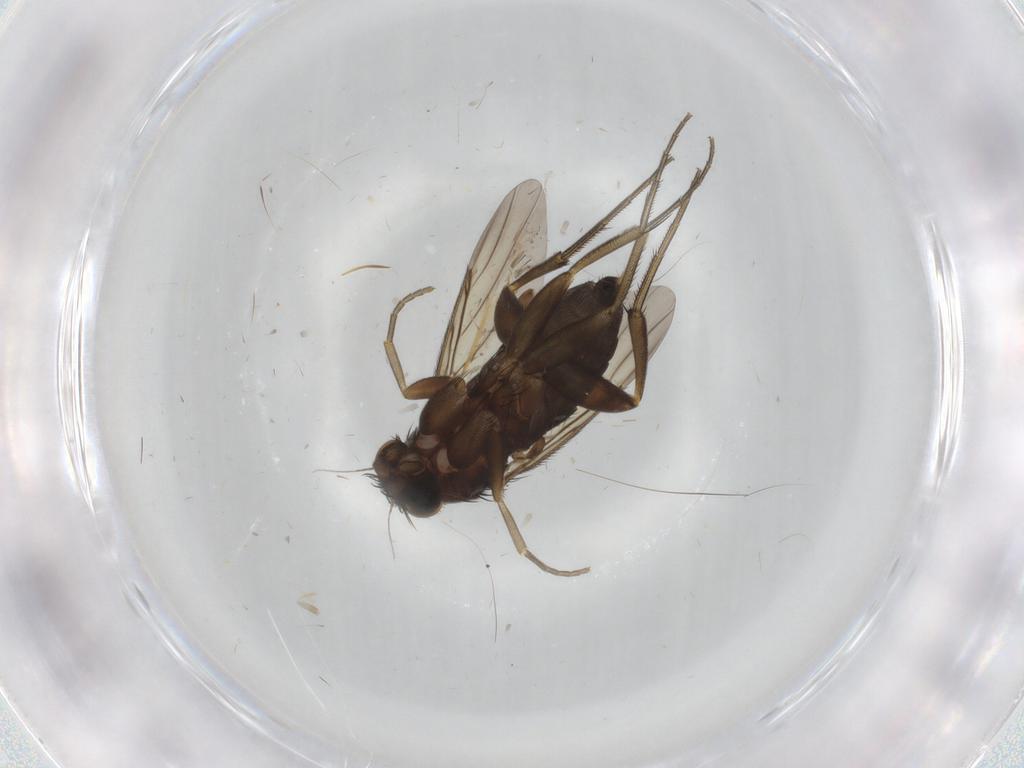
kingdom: Animalia
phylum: Arthropoda
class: Insecta
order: Diptera
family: Phoridae
